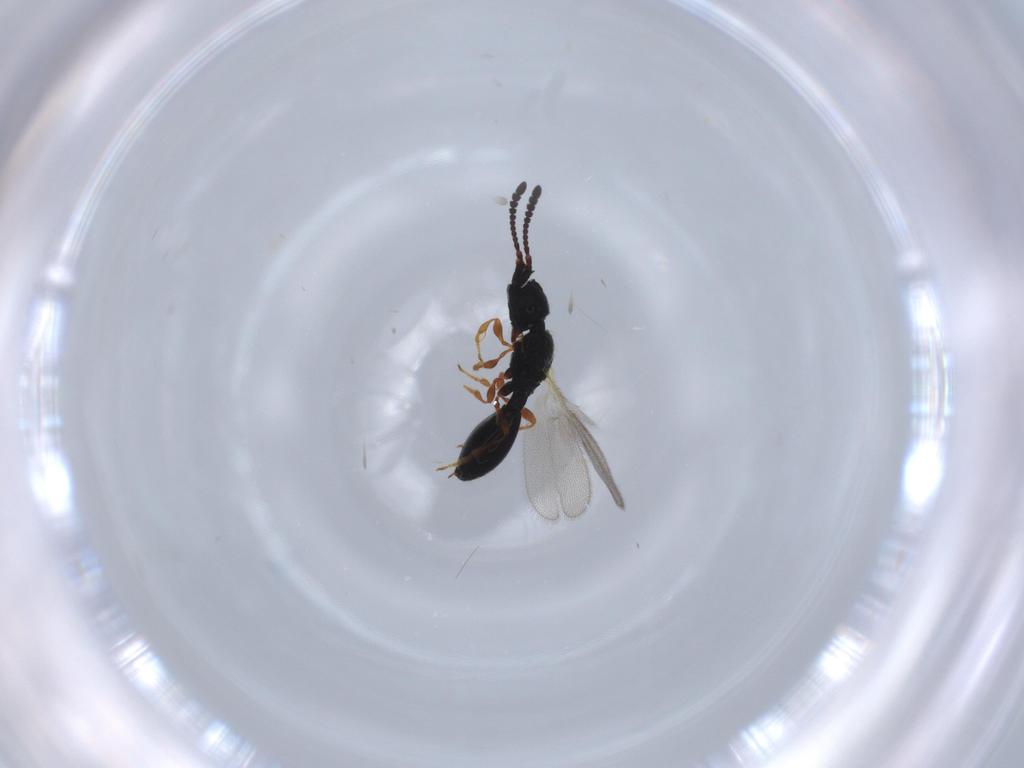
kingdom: Animalia
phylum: Arthropoda
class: Insecta
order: Hymenoptera
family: Diapriidae
